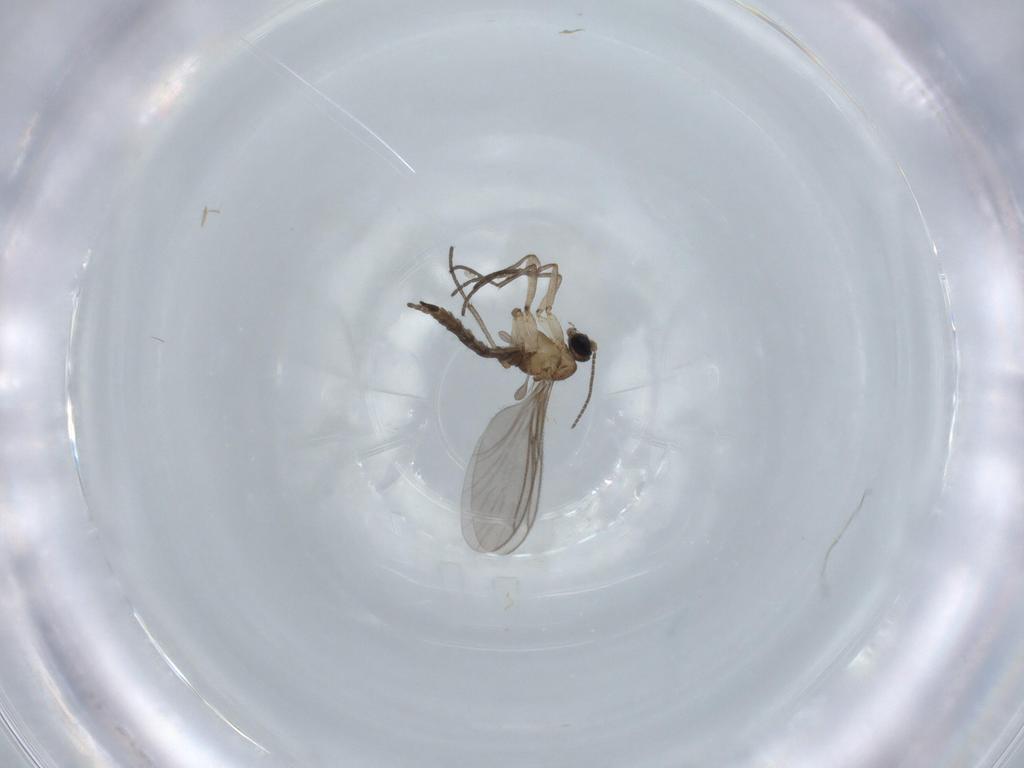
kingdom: Animalia
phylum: Arthropoda
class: Insecta
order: Diptera
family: Sciaridae
